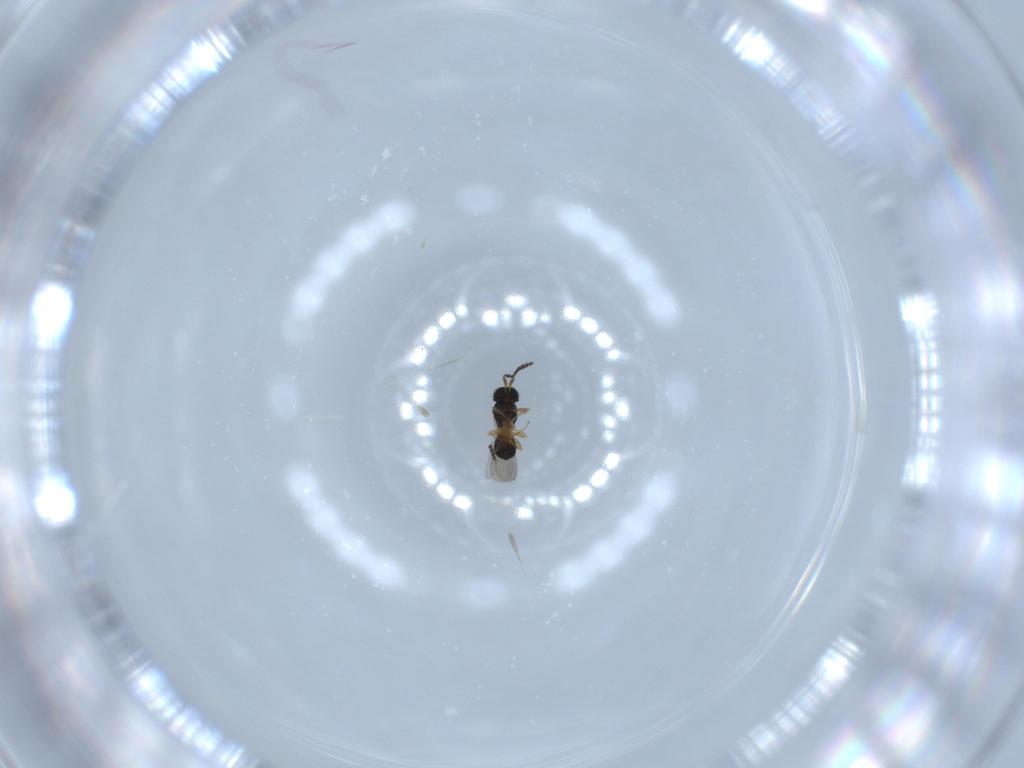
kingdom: Animalia
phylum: Arthropoda
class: Insecta
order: Hymenoptera
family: Scelionidae
